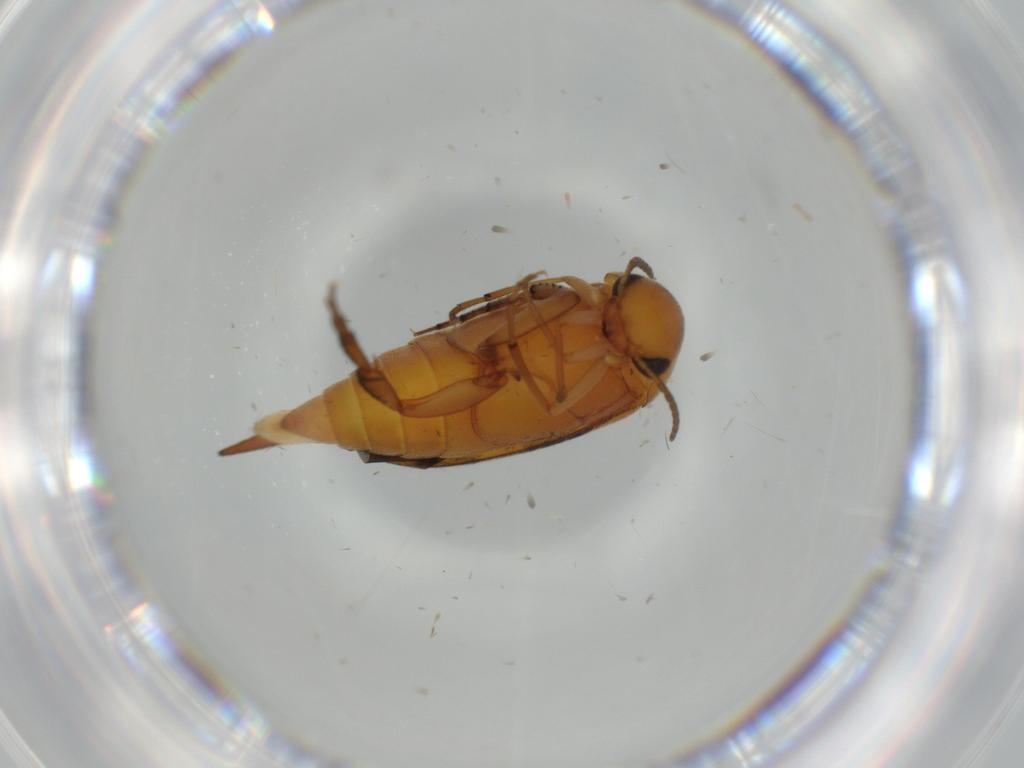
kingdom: Animalia
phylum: Arthropoda
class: Insecta
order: Coleoptera
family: Mordellidae
